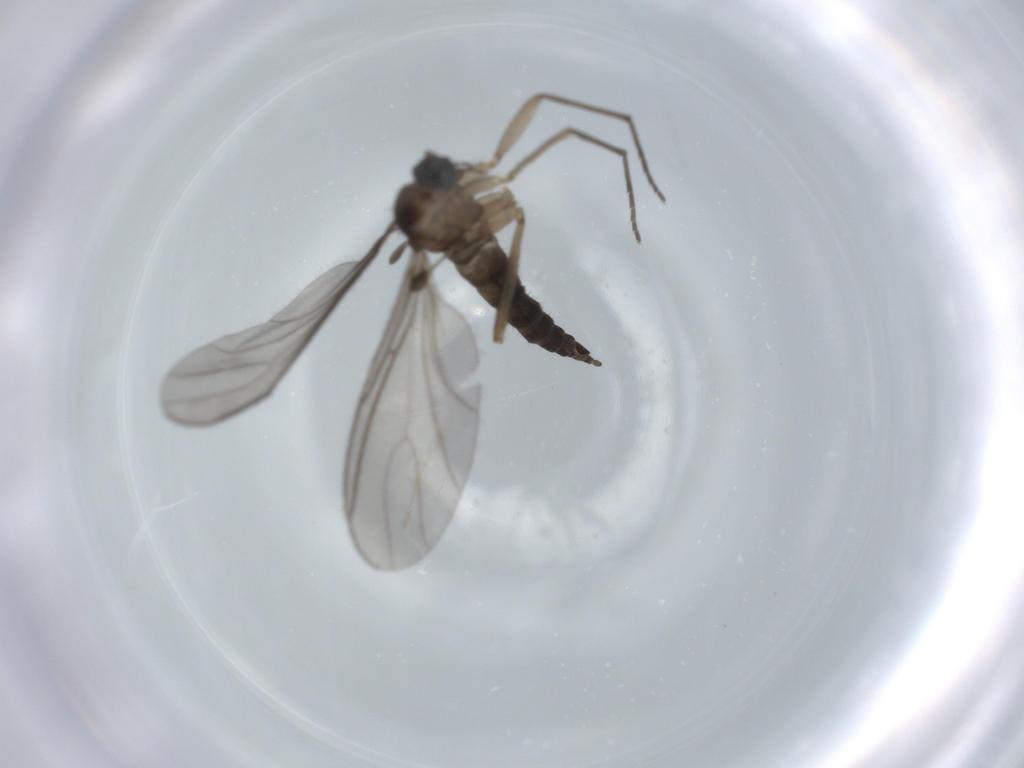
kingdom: Animalia
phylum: Arthropoda
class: Insecta
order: Diptera
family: Sciaridae
